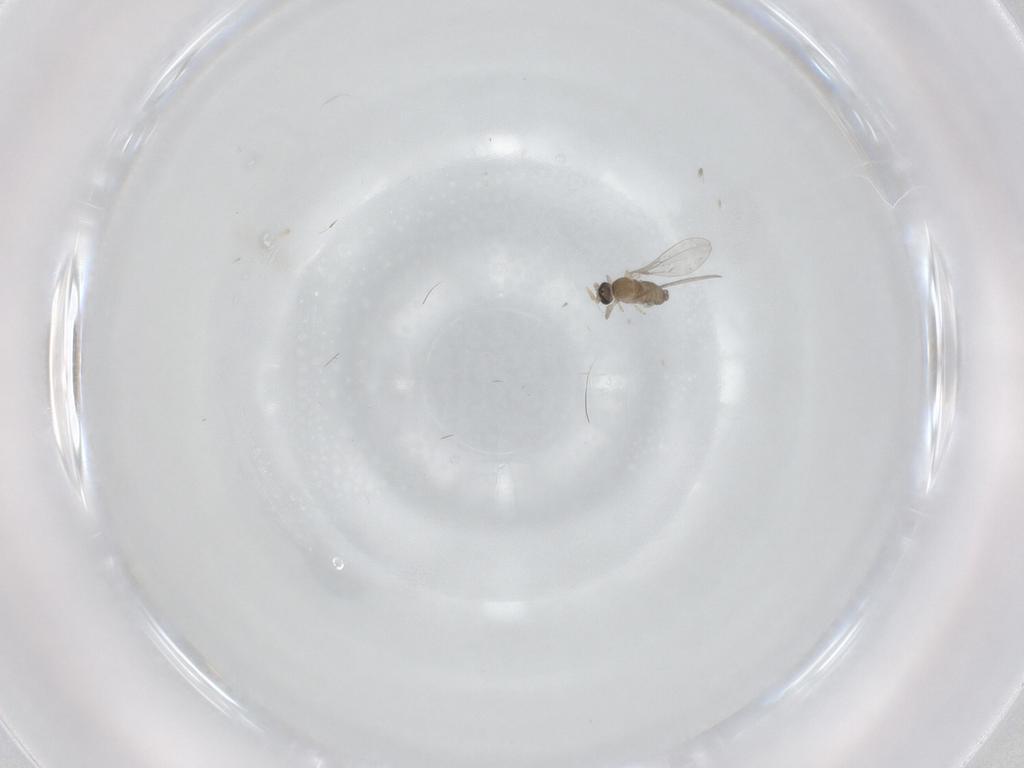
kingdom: Animalia
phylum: Arthropoda
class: Insecta
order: Diptera
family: Cecidomyiidae
